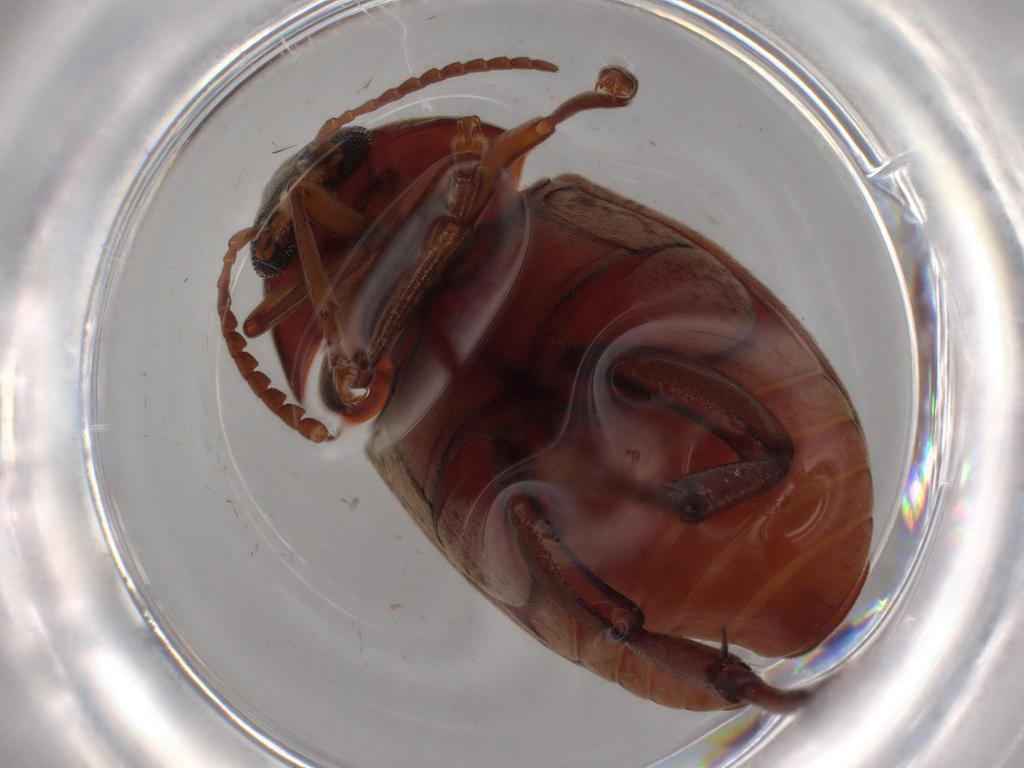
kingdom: Animalia
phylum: Arthropoda
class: Insecta
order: Coleoptera
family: Chrysomelidae
